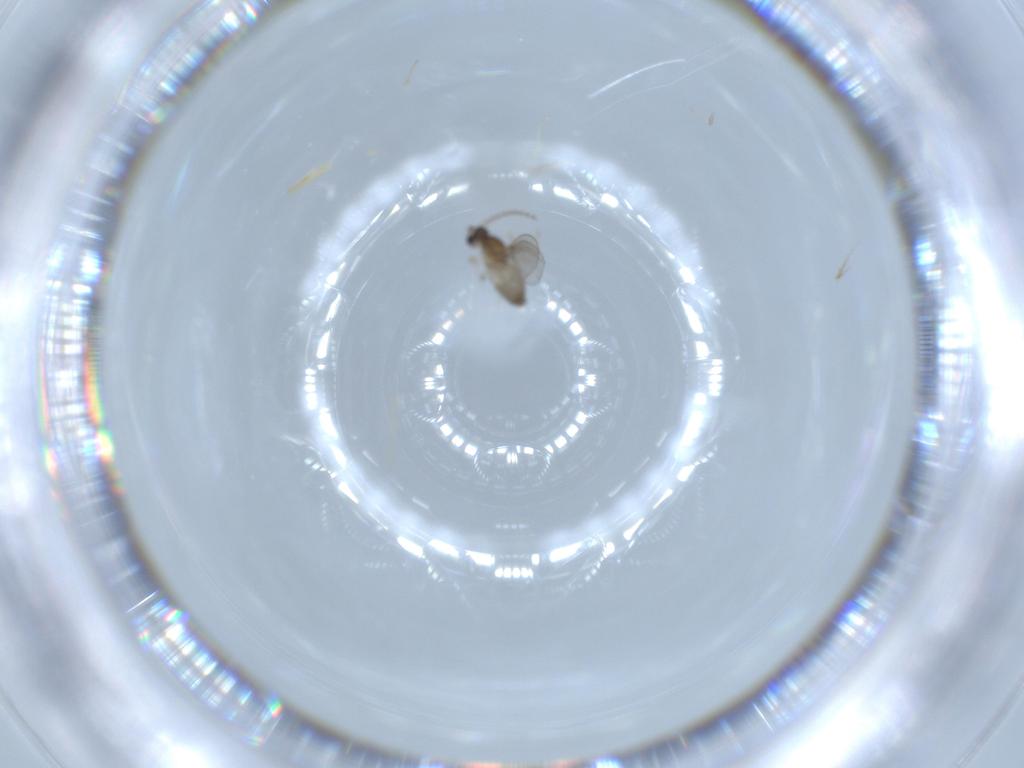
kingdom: Animalia
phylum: Arthropoda
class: Insecta
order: Diptera
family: Cecidomyiidae
